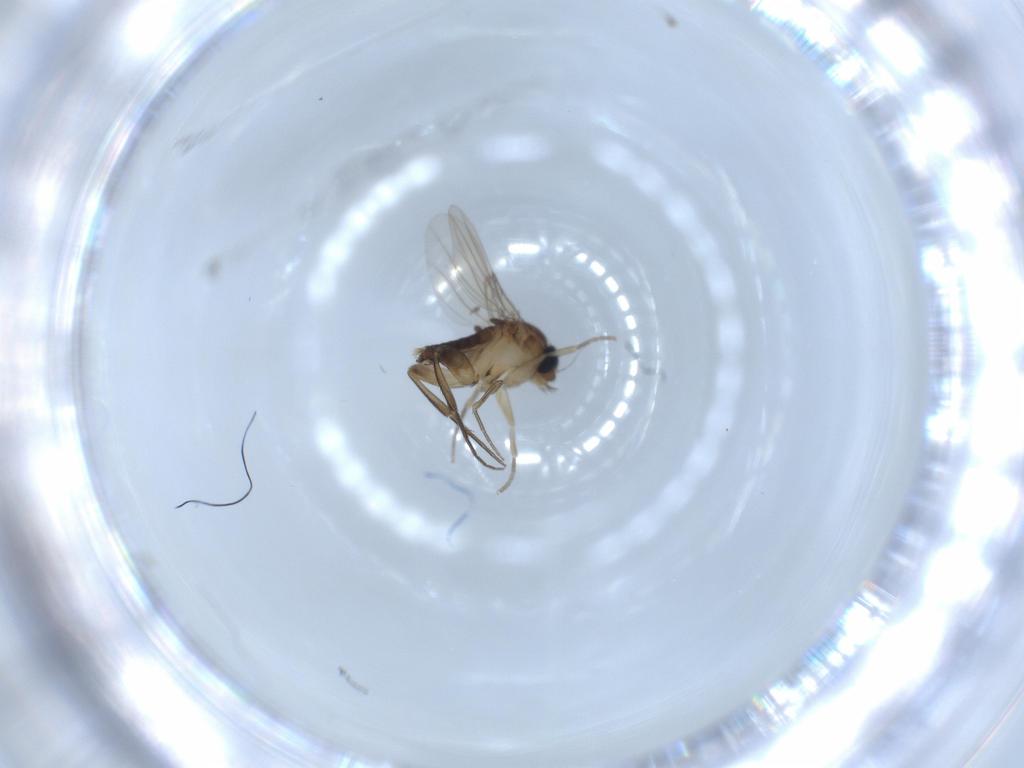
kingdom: Animalia
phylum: Arthropoda
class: Insecta
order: Diptera
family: Phoridae
